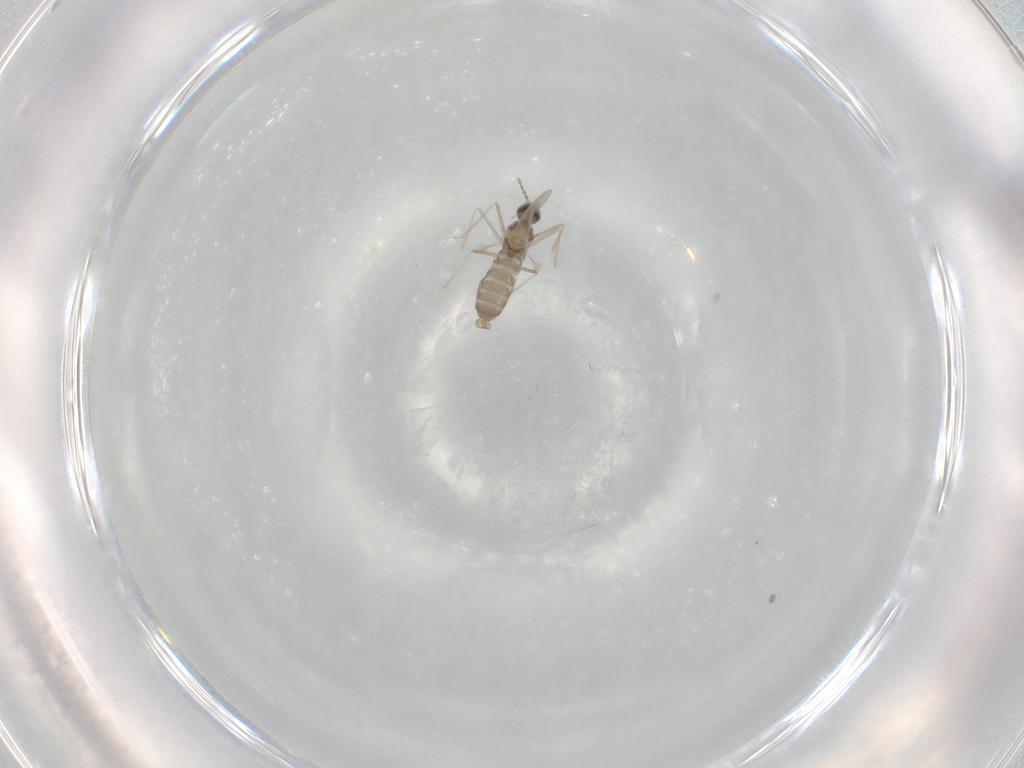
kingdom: Animalia
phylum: Arthropoda
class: Insecta
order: Diptera
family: Cecidomyiidae
